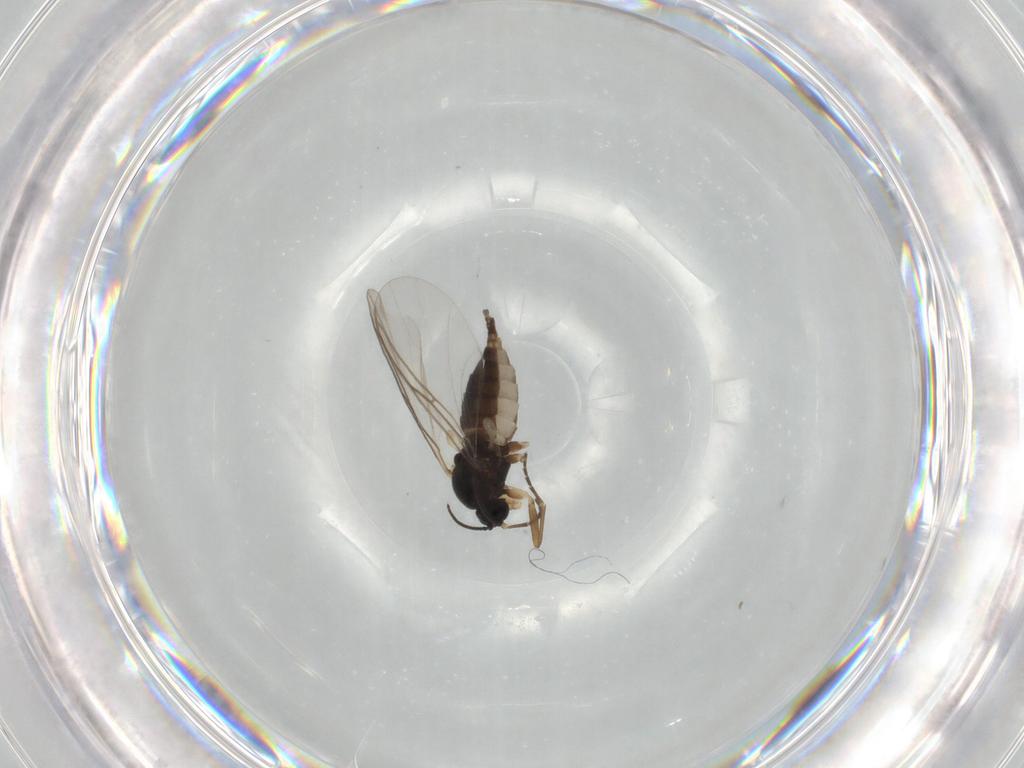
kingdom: Animalia
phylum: Arthropoda
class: Insecta
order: Diptera
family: Sciaridae
